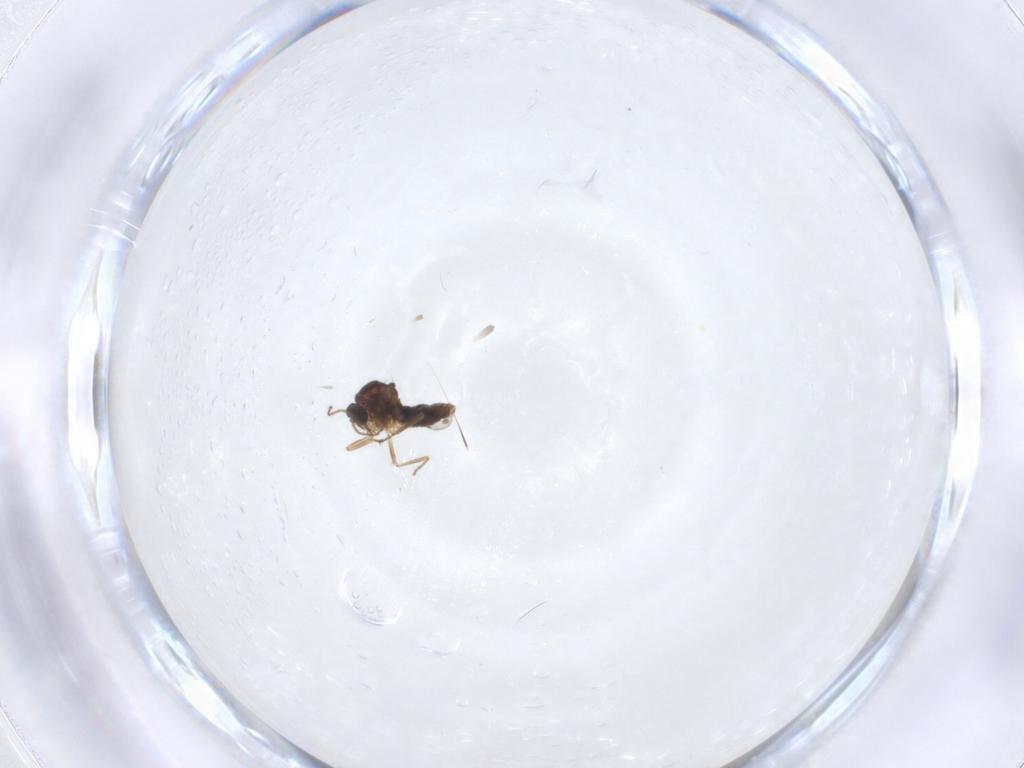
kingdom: Animalia
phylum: Arthropoda
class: Insecta
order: Diptera
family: Ceratopogonidae
